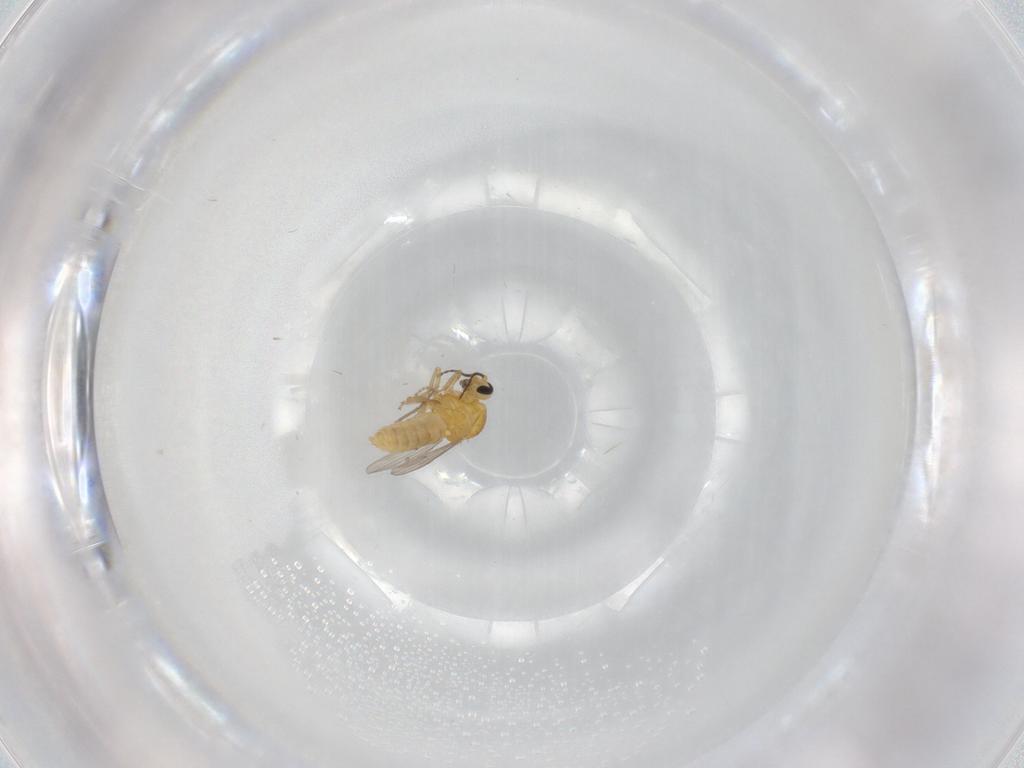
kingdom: Animalia
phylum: Arthropoda
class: Insecta
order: Diptera
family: Ceratopogonidae
